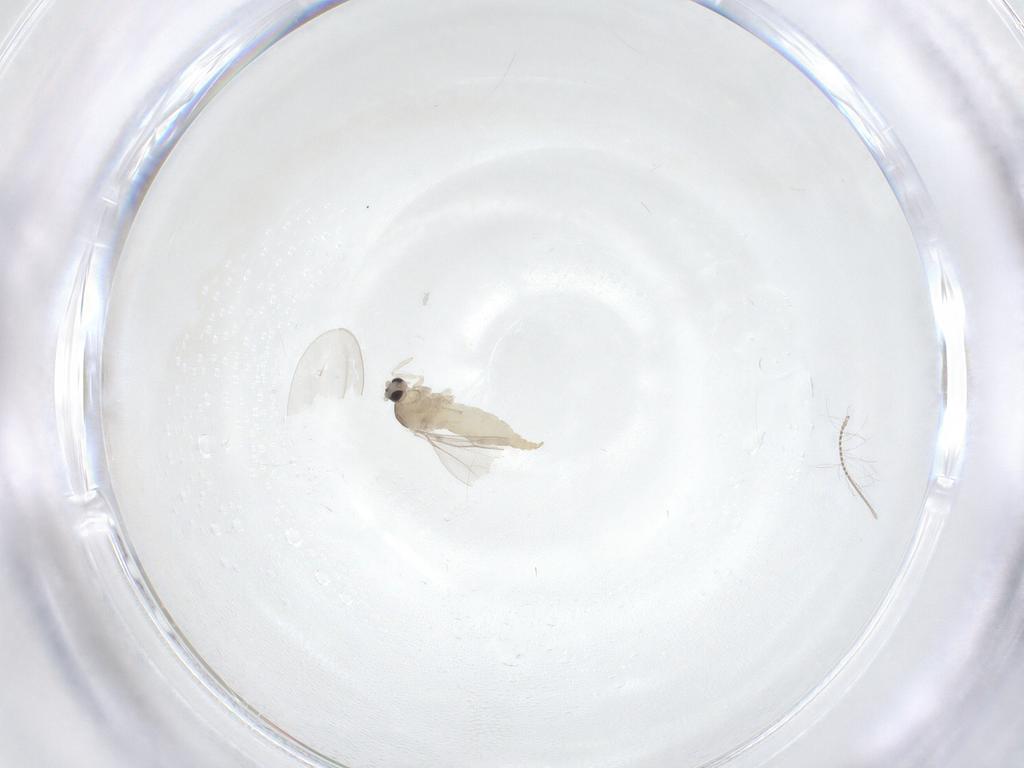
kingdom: Animalia
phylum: Arthropoda
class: Insecta
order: Diptera
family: Cecidomyiidae
